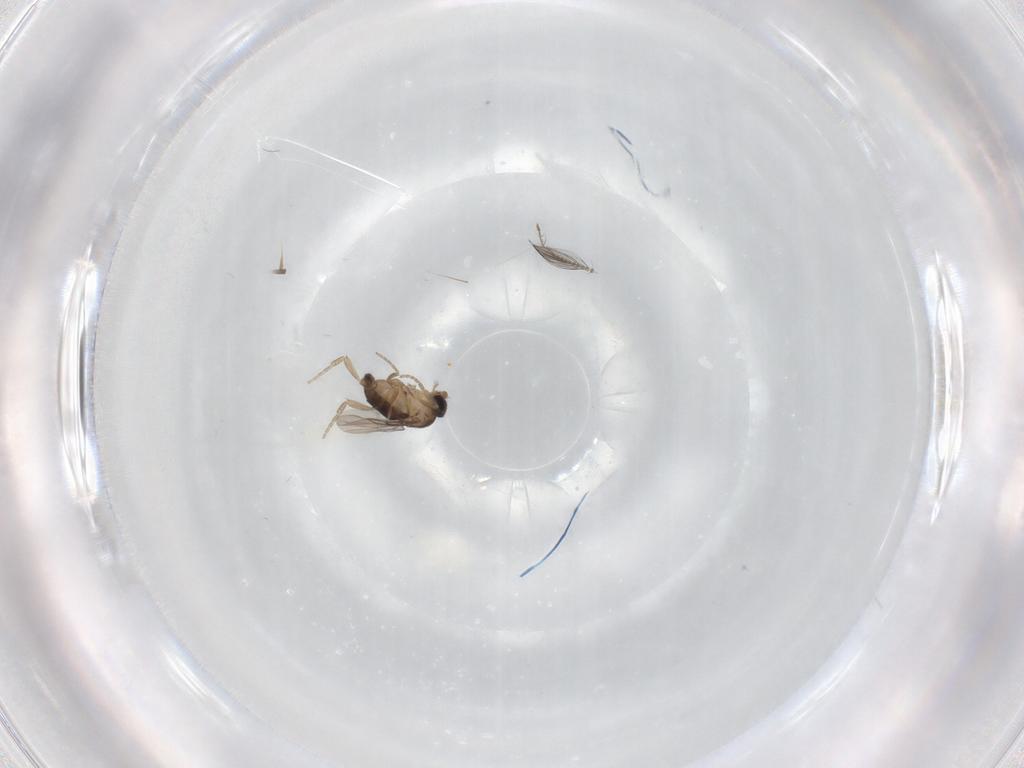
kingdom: Animalia
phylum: Arthropoda
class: Insecta
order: Diptera
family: Phoridae
